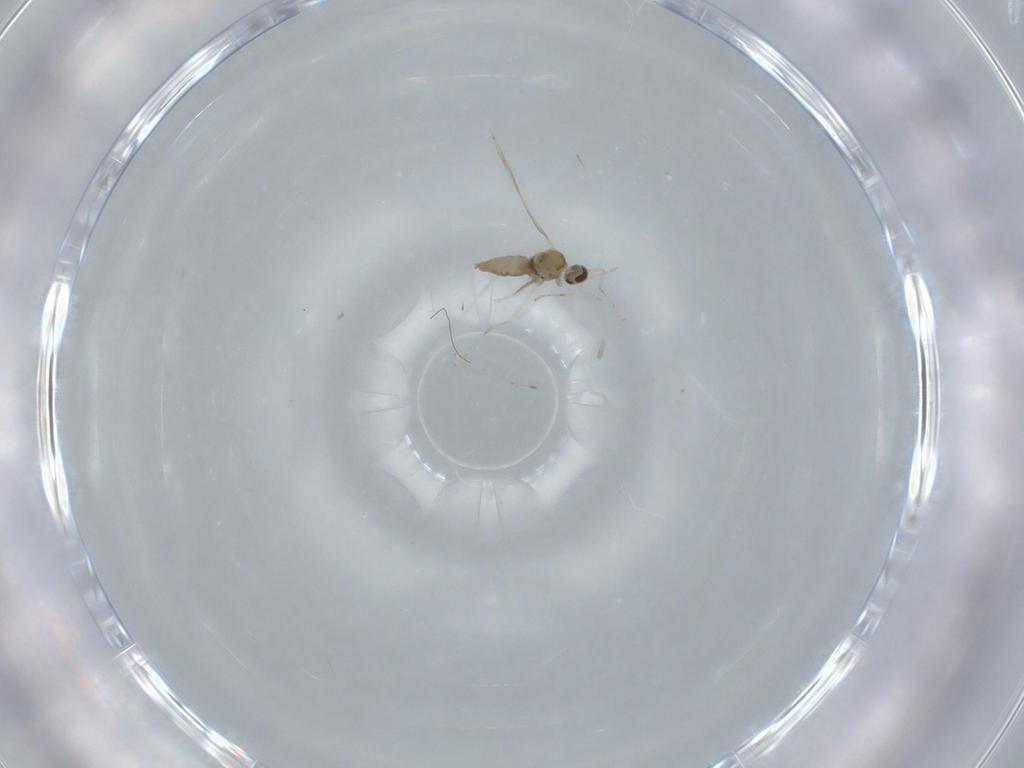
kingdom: Animalia
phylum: Arthropoda
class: Insecta
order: Diptera
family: Cecidomyiidae
